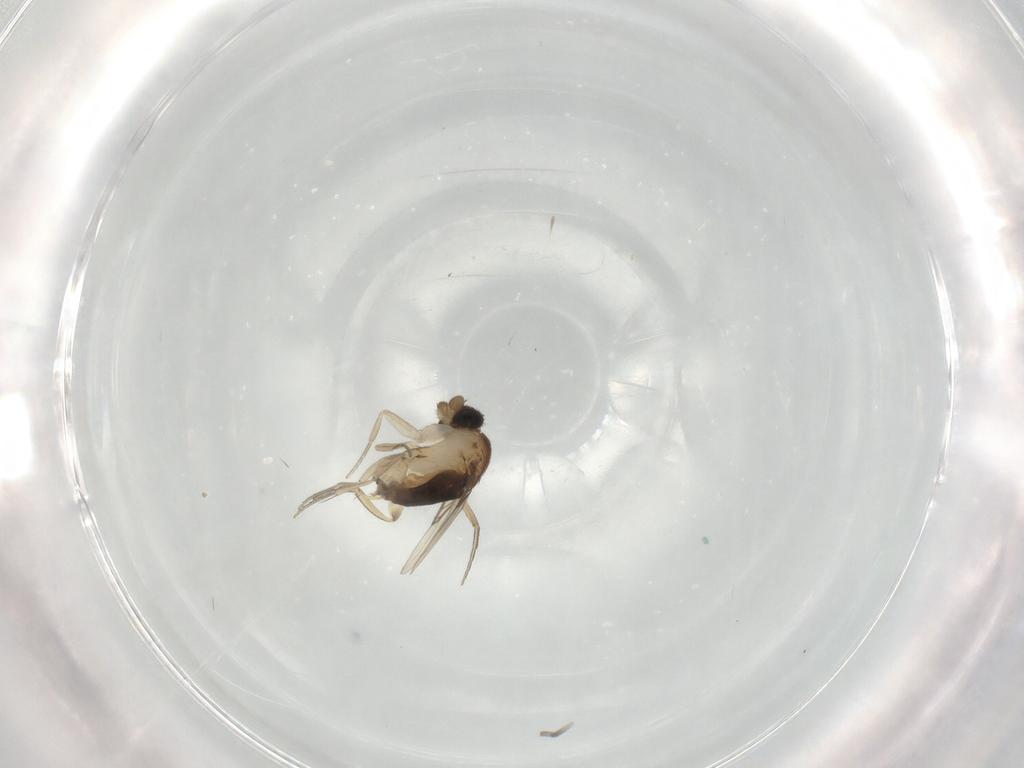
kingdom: Animalia
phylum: Arthropoda
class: Insecta
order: Diptera
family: Phoridae
